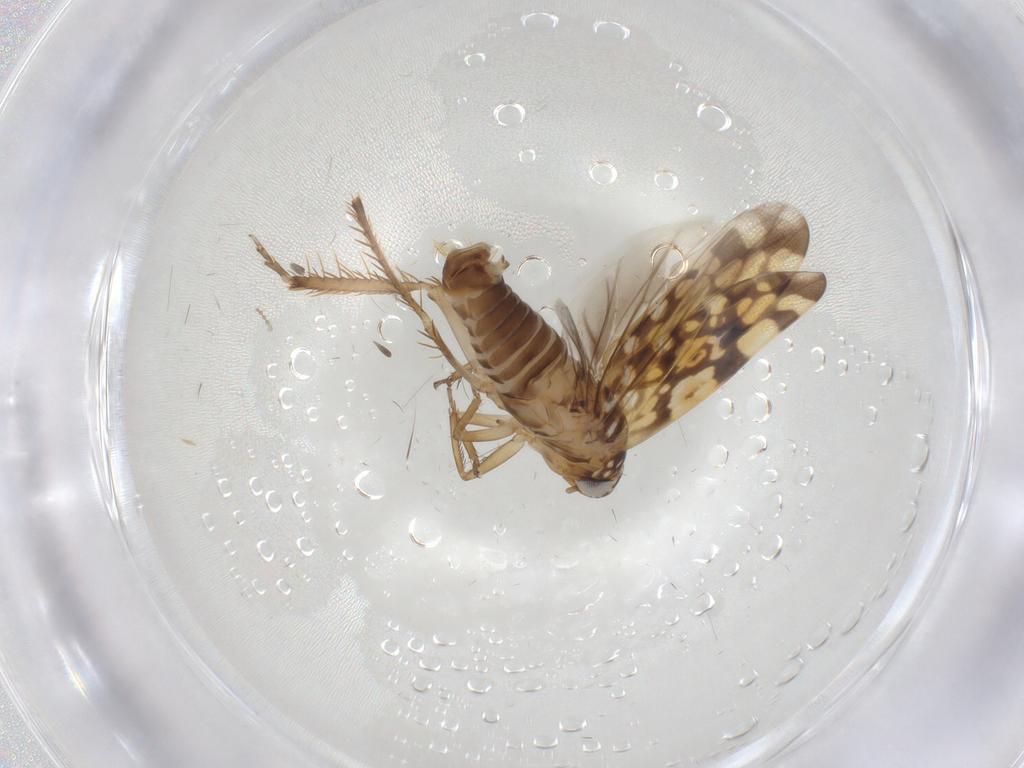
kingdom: Animalia
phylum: Arthropoda
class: Insecta
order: Hemiptera
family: Cicadellidae
